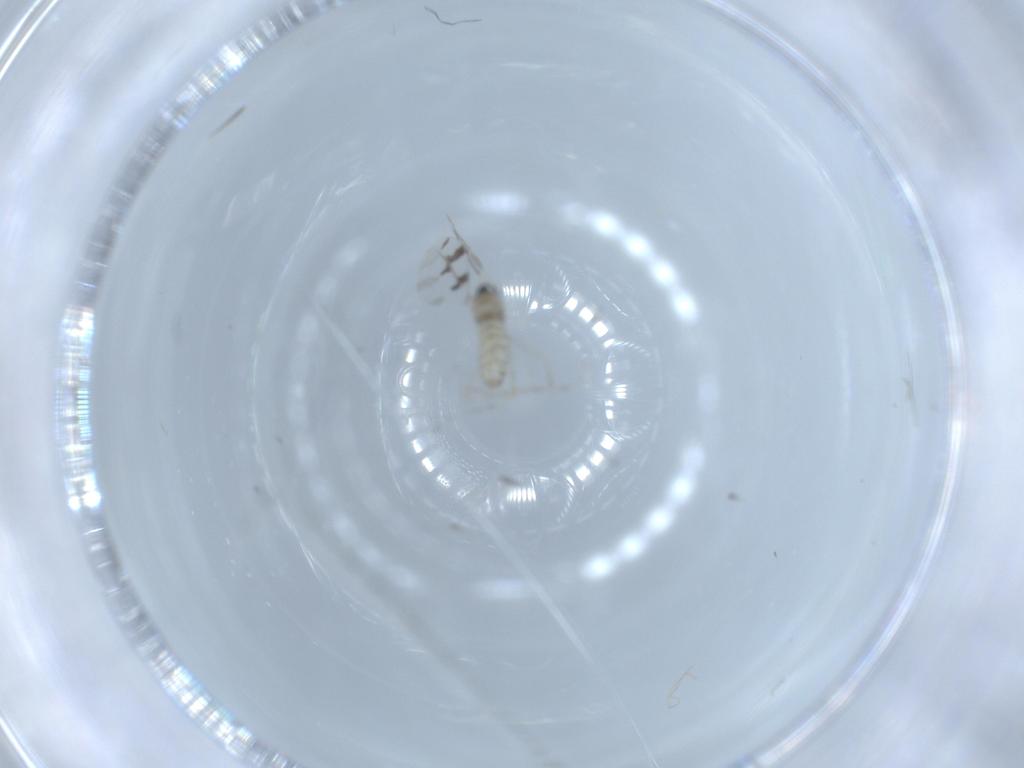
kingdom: Animalia
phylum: Arthropoda
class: Insecta
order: Diptera
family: Cecidomyiidae
